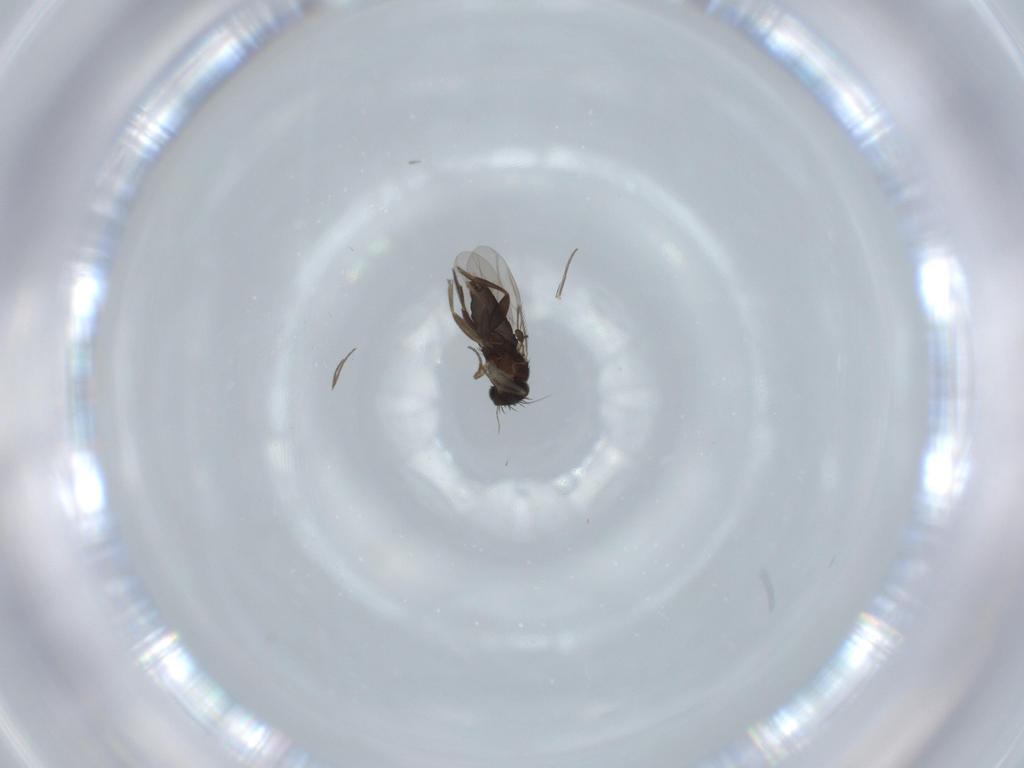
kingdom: Animalia
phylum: Arthropoda
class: Insecta
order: Diptera
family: Phoridae
